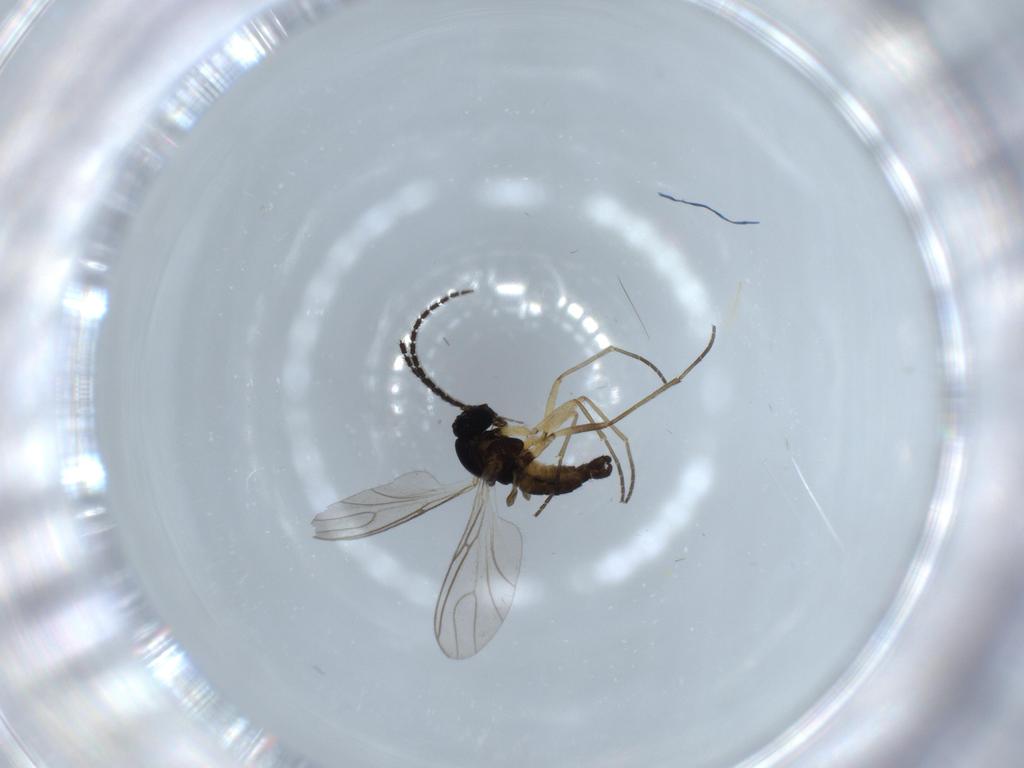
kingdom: Animalia
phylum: Arthropoda
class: Insecta
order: Diptera
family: Sciaridae
